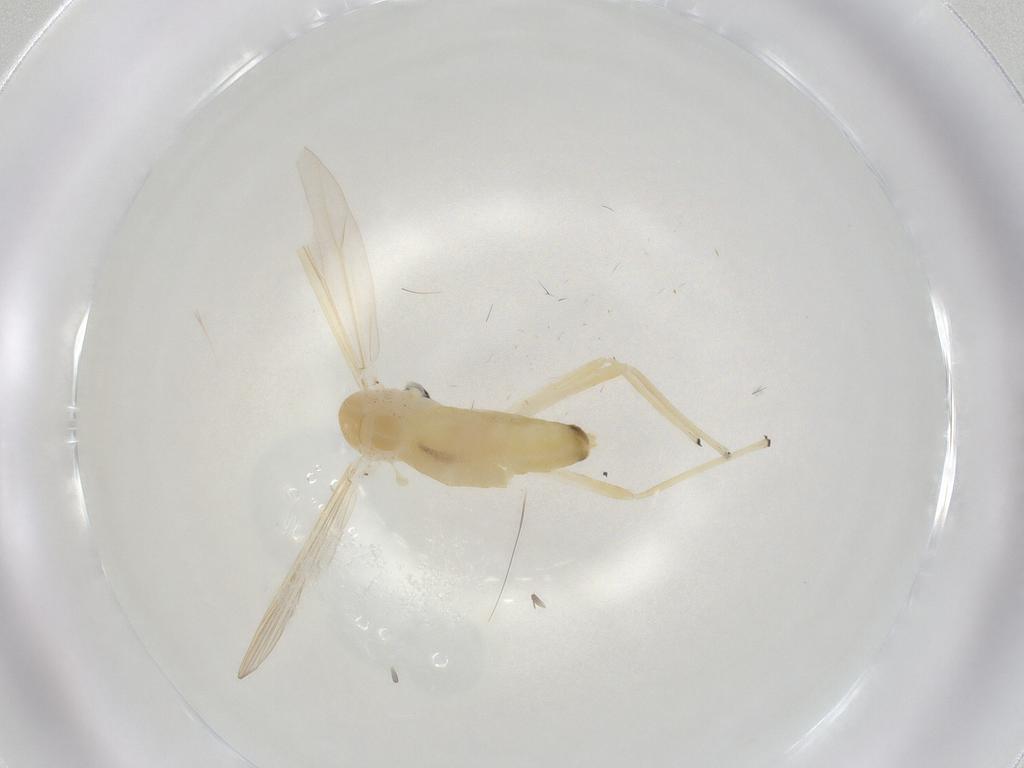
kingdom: Animalia
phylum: Arthropoda
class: Insecta
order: Diptera
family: Chironomidae
